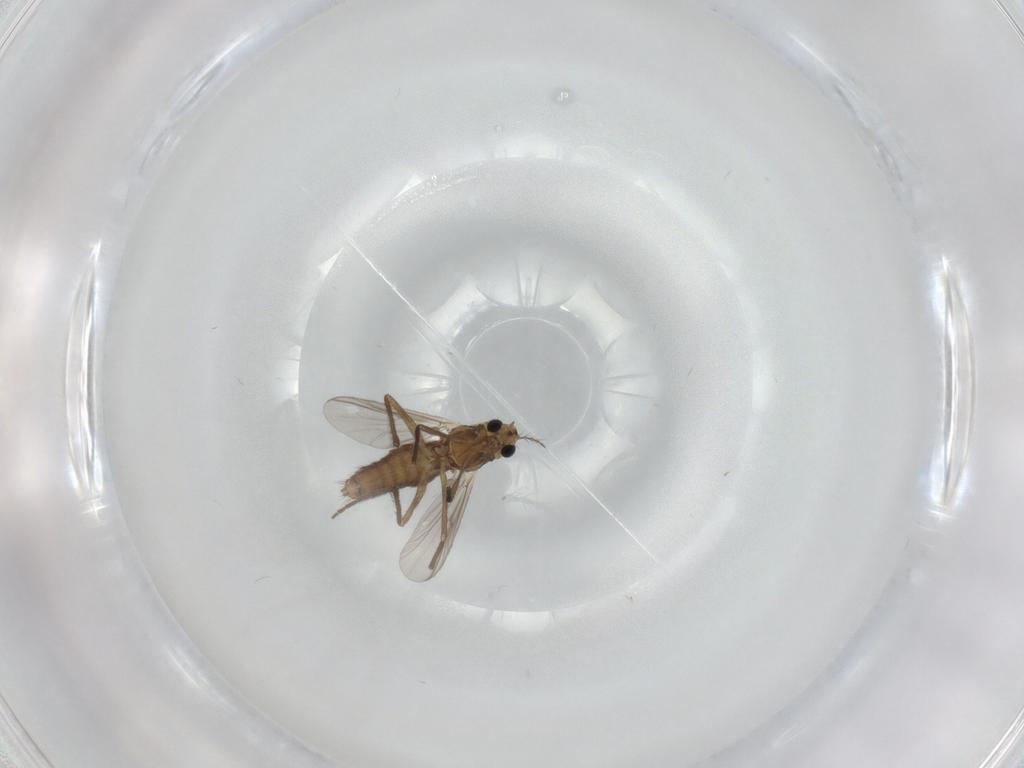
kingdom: Animalia
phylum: Arthropoda
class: Insecta
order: Diptera
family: Chironomidae
